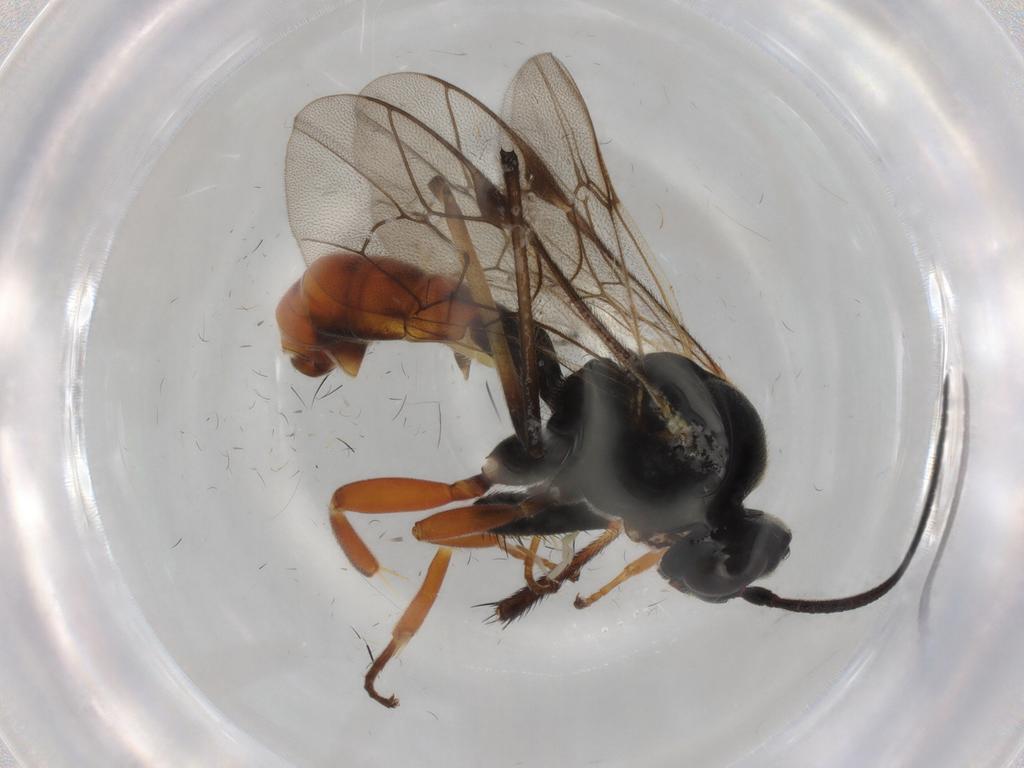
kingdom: Animalia
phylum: Arthropoda
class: Insecta
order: Hymenoptera
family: Ichneumonidae
